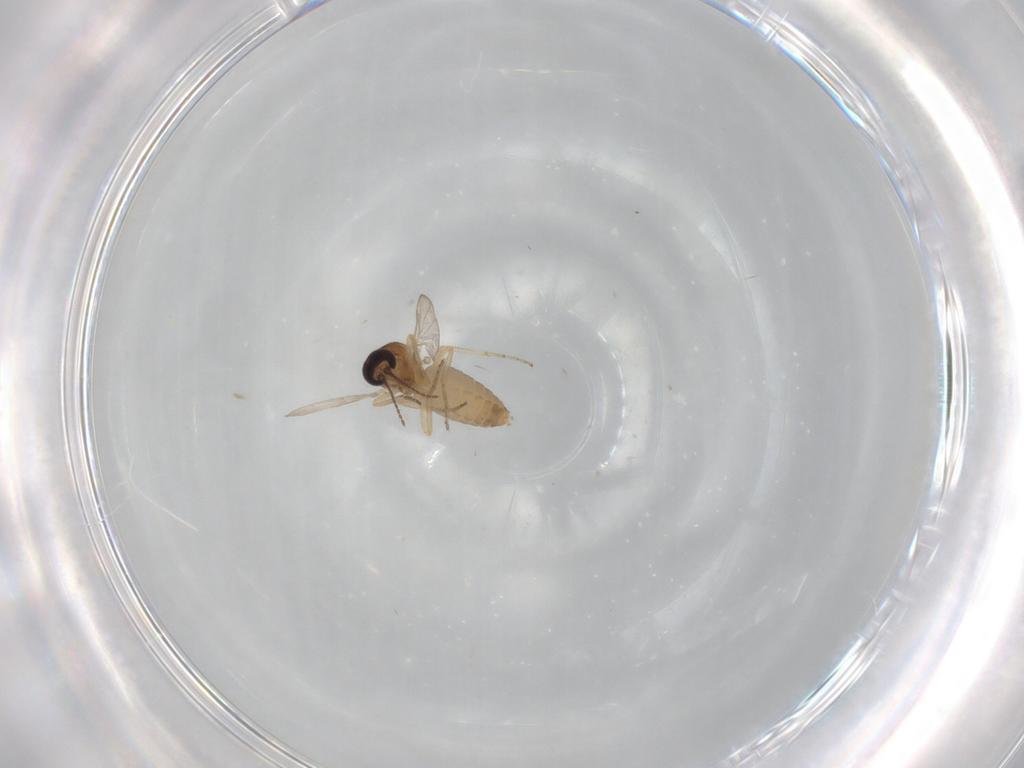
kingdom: Animalia
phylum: Arthropoda
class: Insecta
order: Diptera
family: Ceratopogonidae
